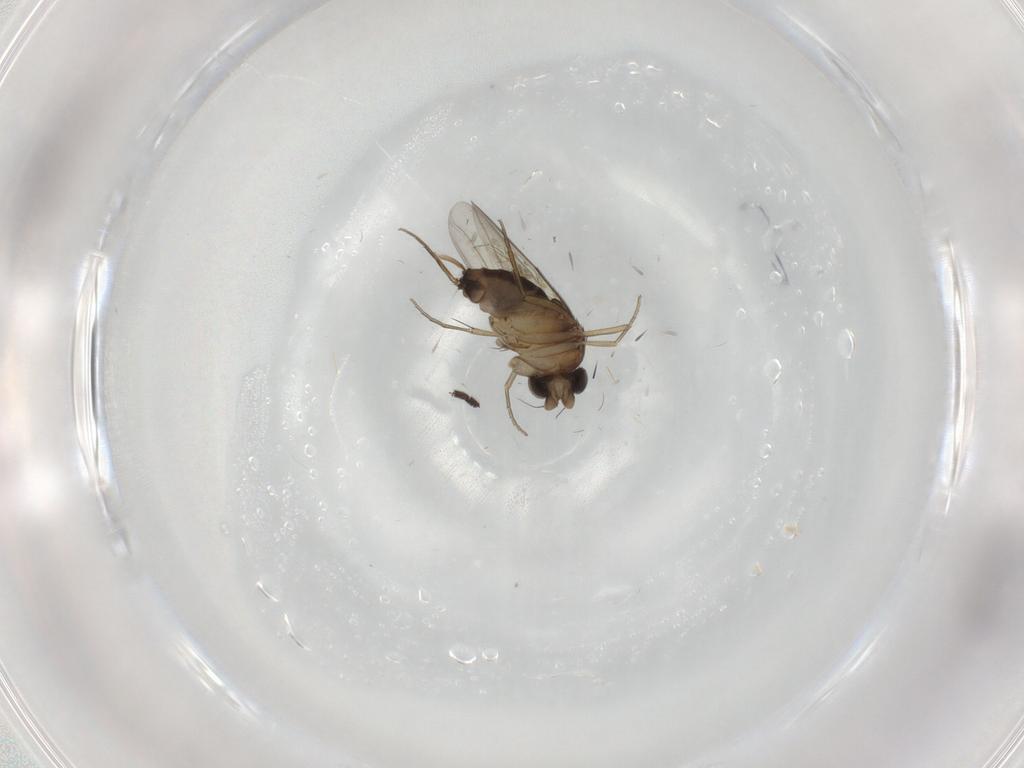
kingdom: Animalia
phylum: Arthropoda
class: Insecta
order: Diptera
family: Phoridae
